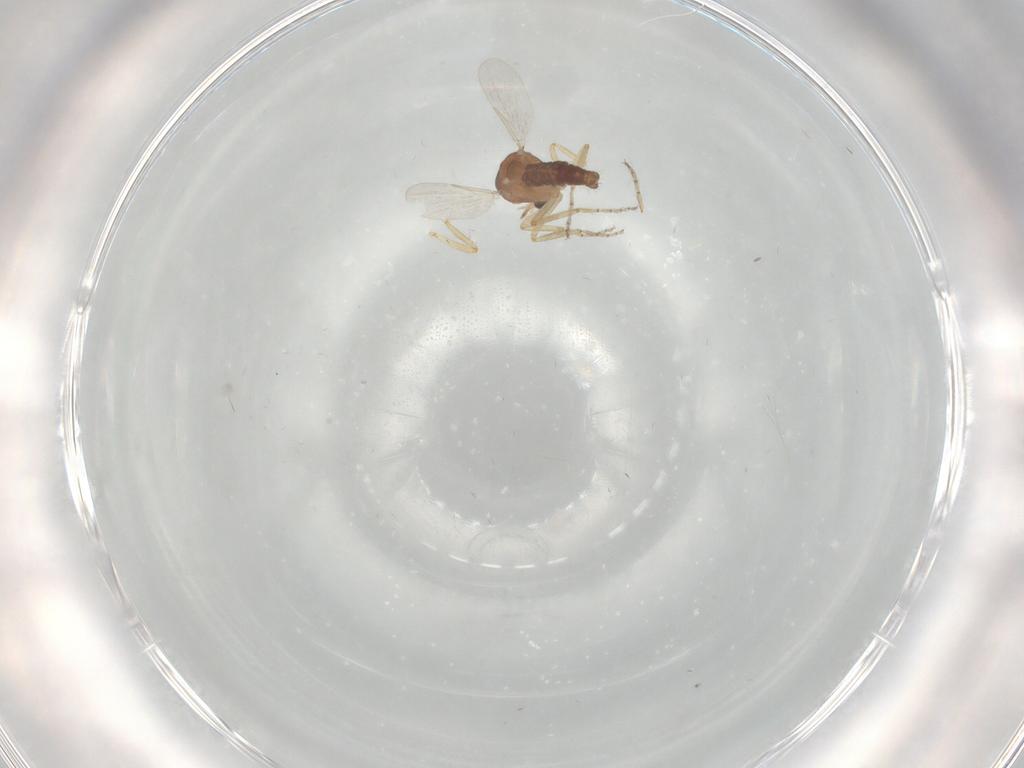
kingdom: Animalia
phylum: Arthropoda
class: Insecta
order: Diptera
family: Ceratopogonidae
